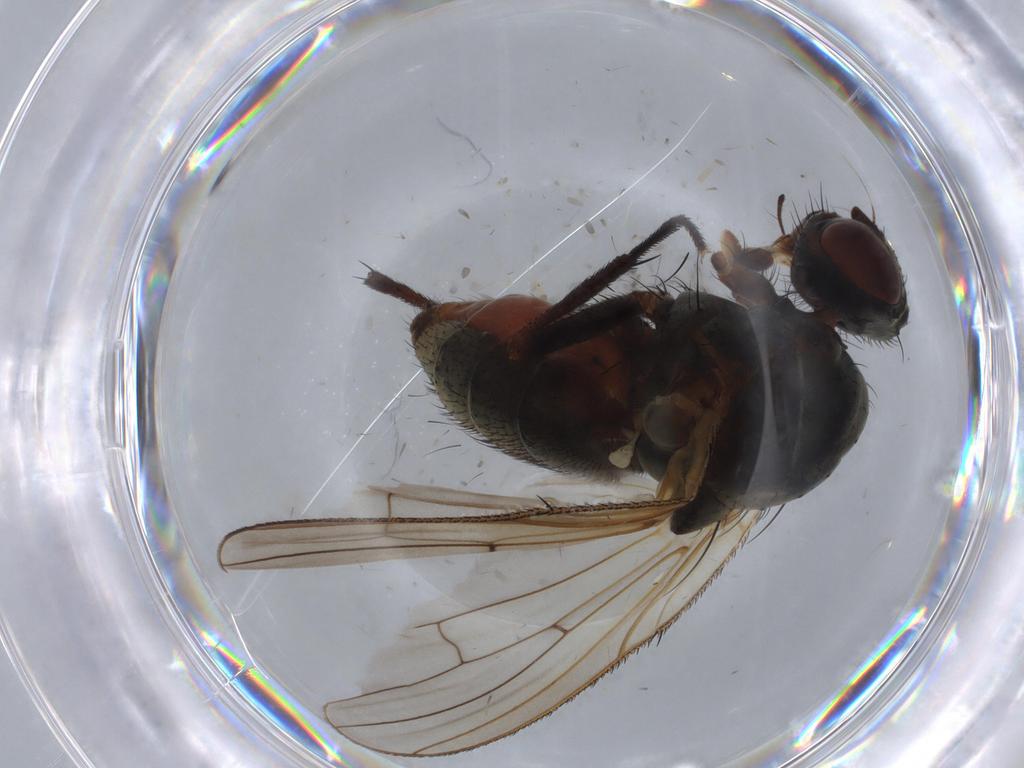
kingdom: Animalia
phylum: Arthropoda
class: Insecta
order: Diptera
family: Anthomyiidae
